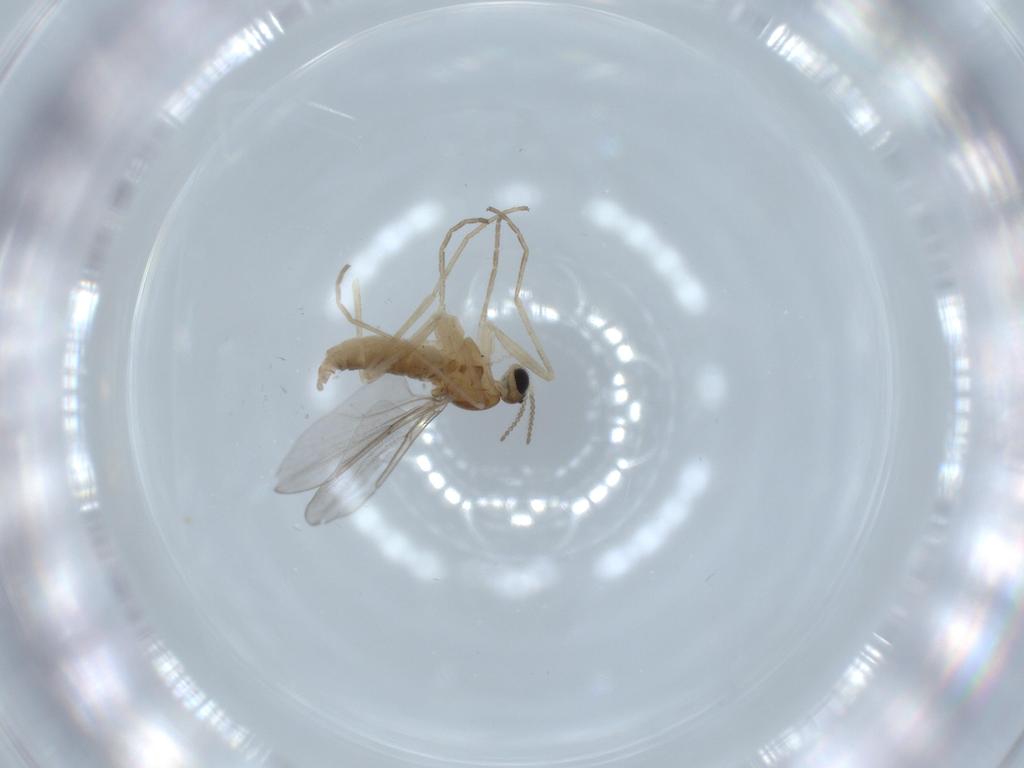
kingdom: Animalia
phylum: Arthropoda
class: Insecta
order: Diptera
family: Cecidomyiidae
